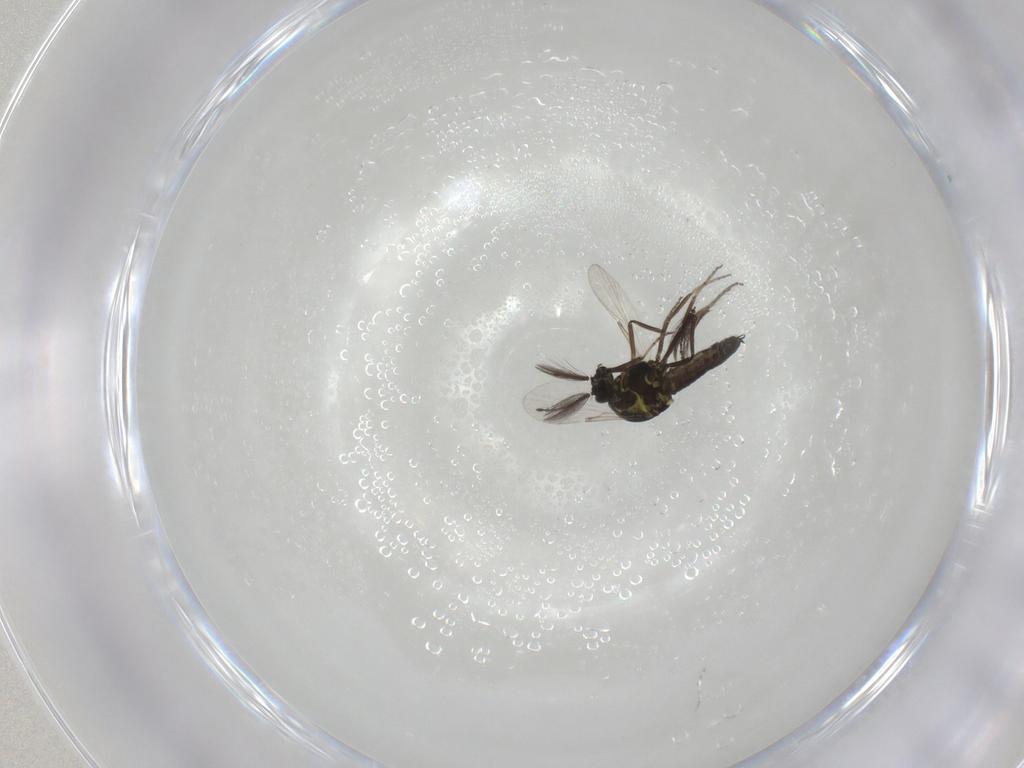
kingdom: Animalia
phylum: Arthropoda
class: Insecta
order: Diptera
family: Ceratopogonidae
